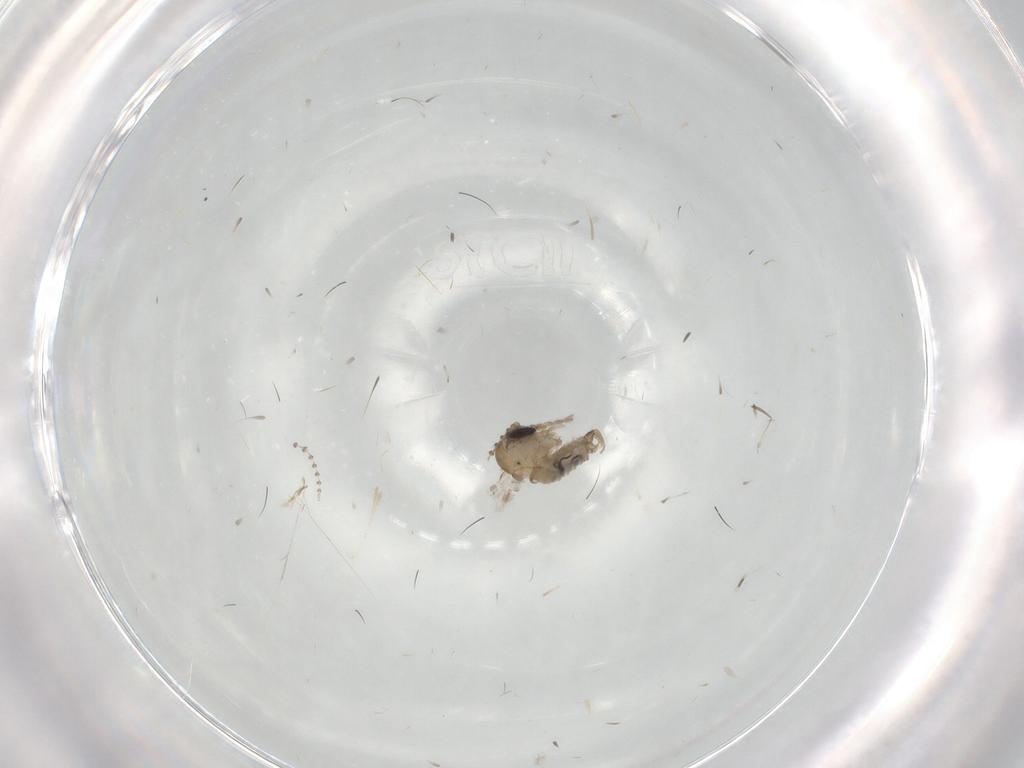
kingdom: Animalia
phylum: Arthropoda
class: Insecta
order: Diptera
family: Psychodidae
